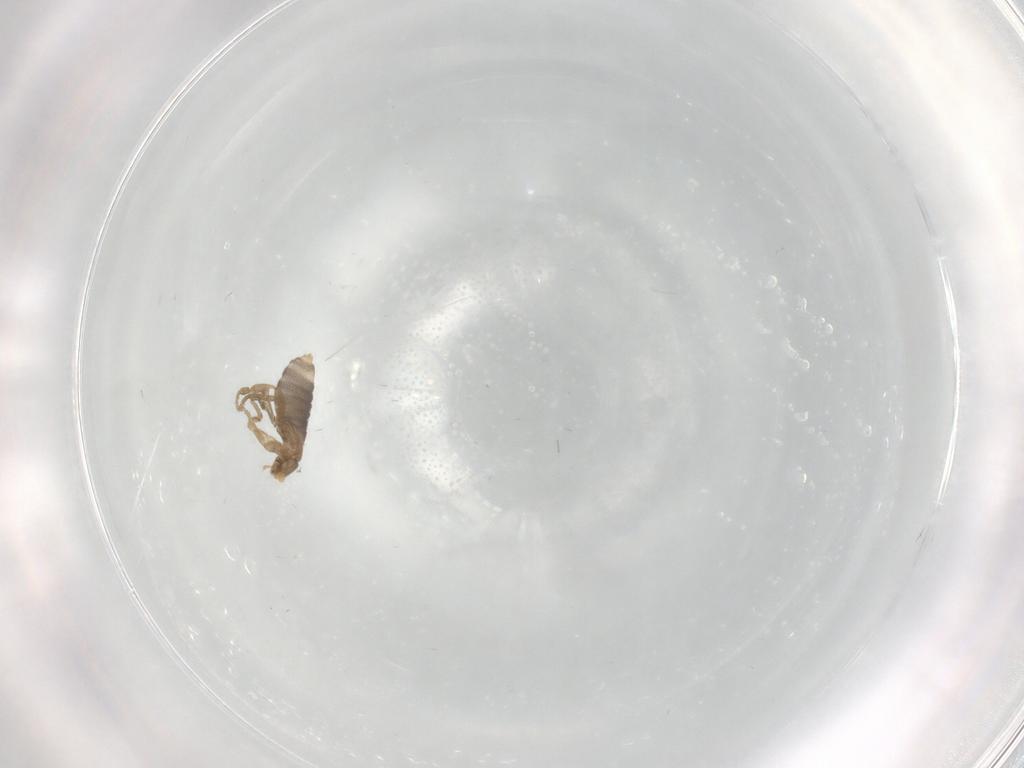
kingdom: Animalia
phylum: Arthropoda
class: Insecta
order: Diptera
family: Phoridae
